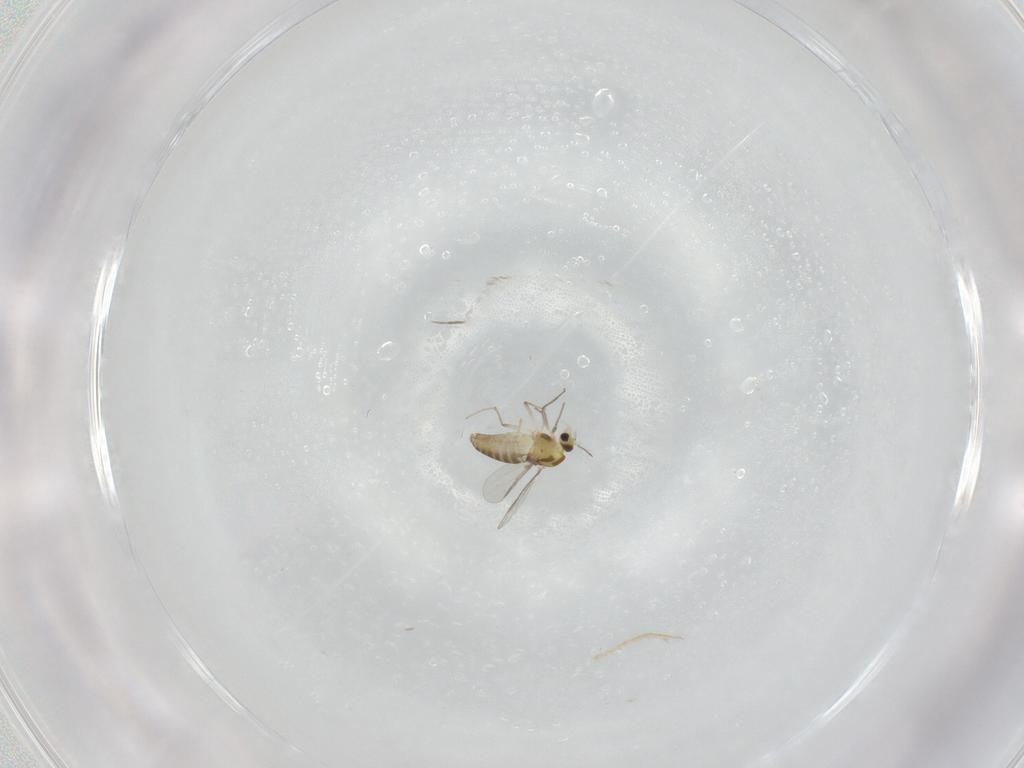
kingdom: Animalia
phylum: Arthropoda
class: Insecta
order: Diptera
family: Chironomidae
